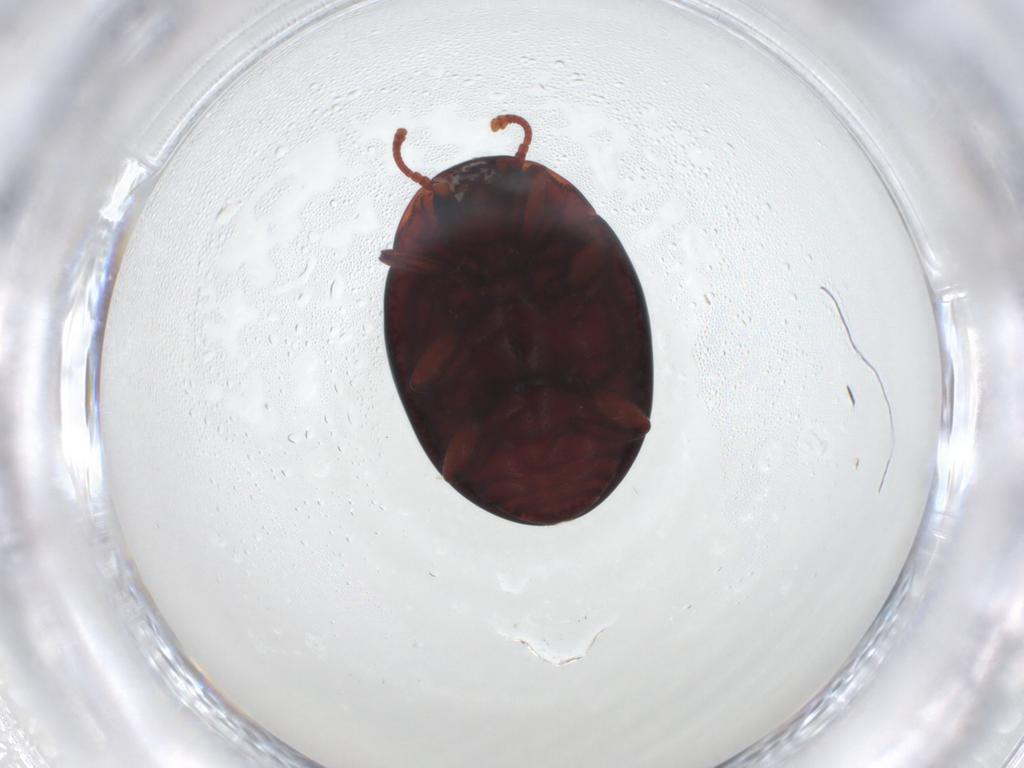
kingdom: Animalia
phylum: Arthropoda
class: Insecta
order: Coleoptera
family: Zopheridae
